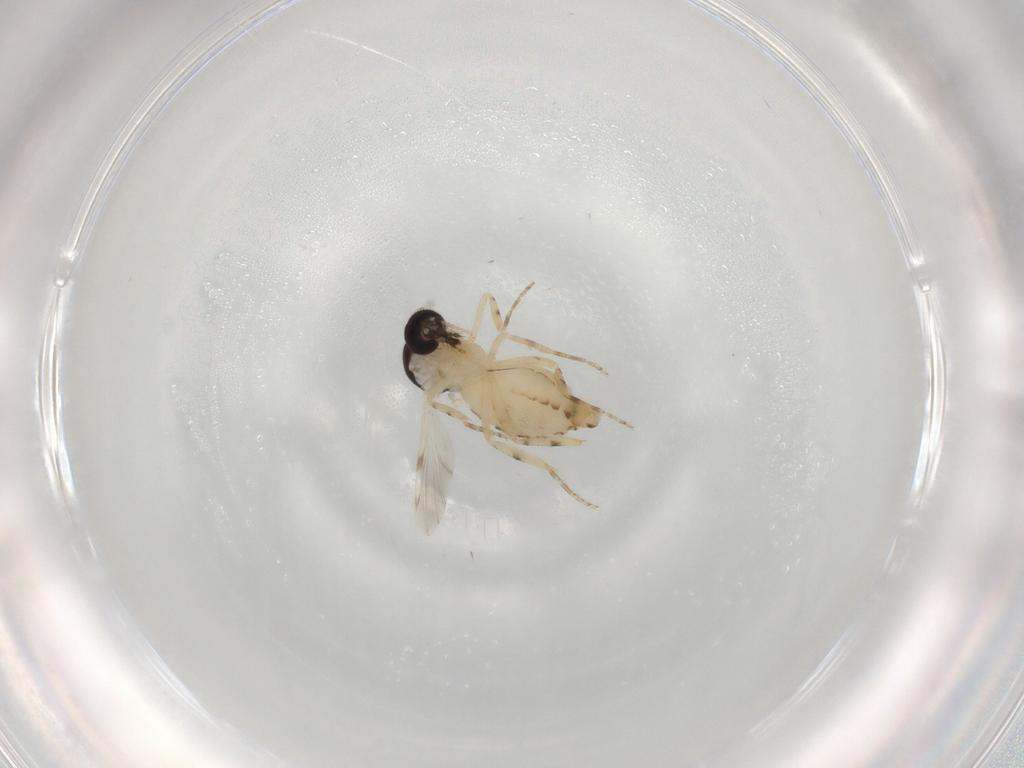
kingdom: Animalia
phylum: Arthropoda
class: Insecta
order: Diptera
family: Ceratopogonidae
